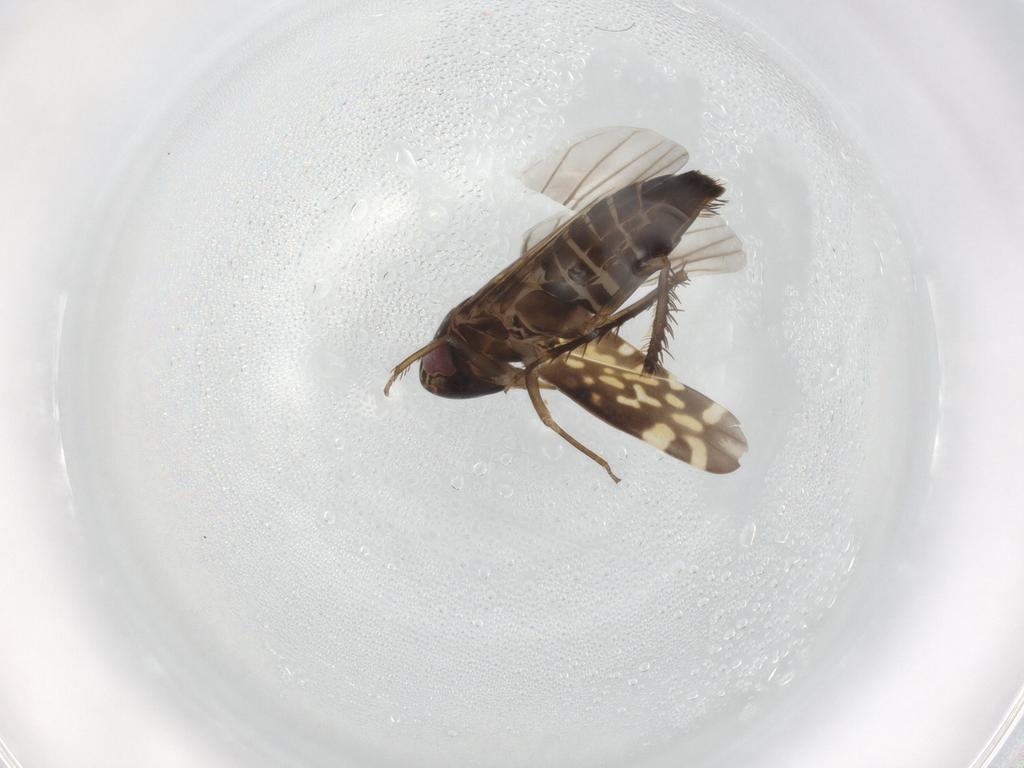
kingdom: Animalia
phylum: Arthropoda
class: Insecta
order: Hemiptera
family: Cicadellidae
